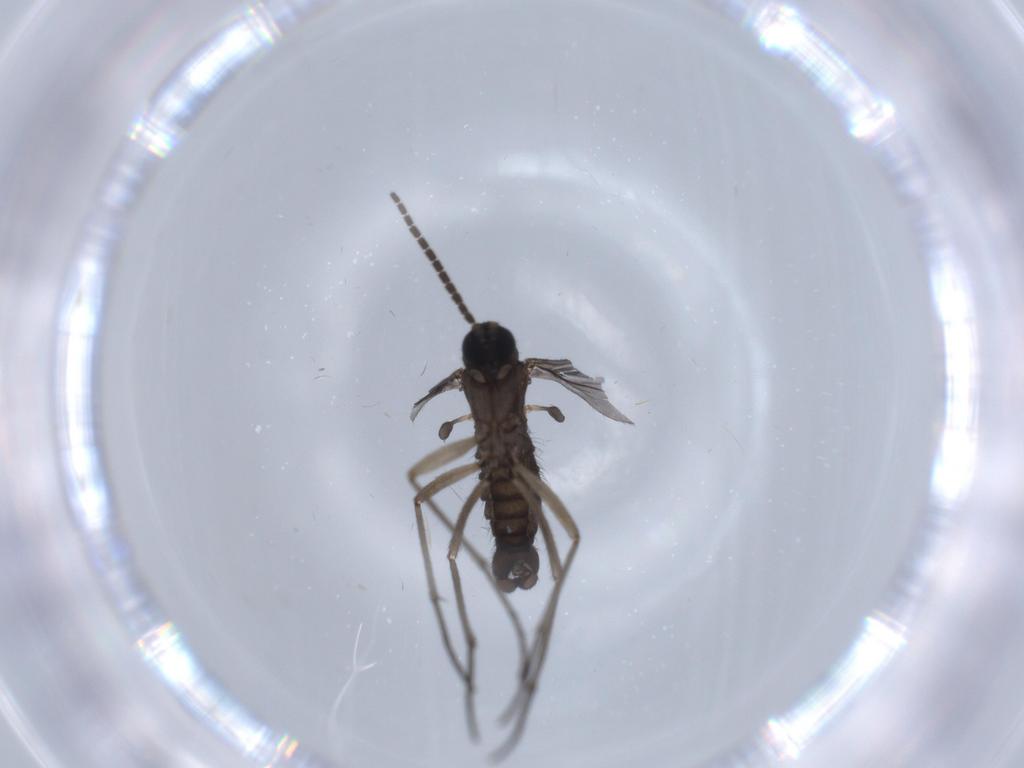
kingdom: Animalia
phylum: Arthropoda
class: Insecta
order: Diptera
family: Sciaridae
